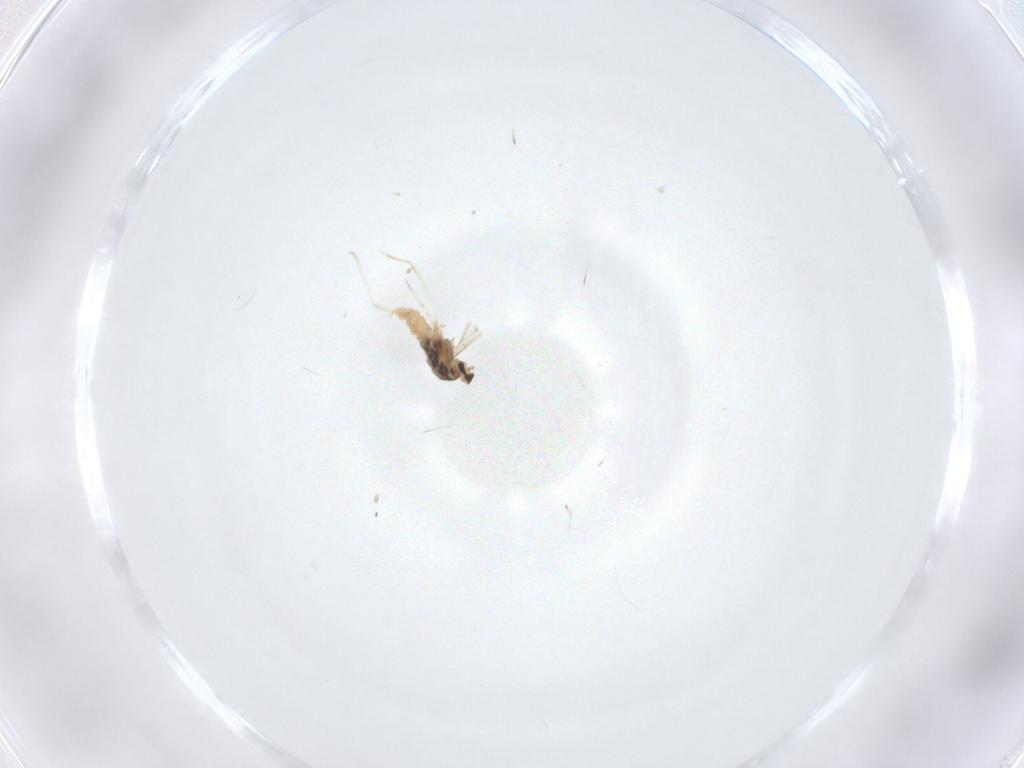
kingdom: Animalia
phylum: Arthropoda
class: Insecta
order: Diptera
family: Cecidomyiidae
